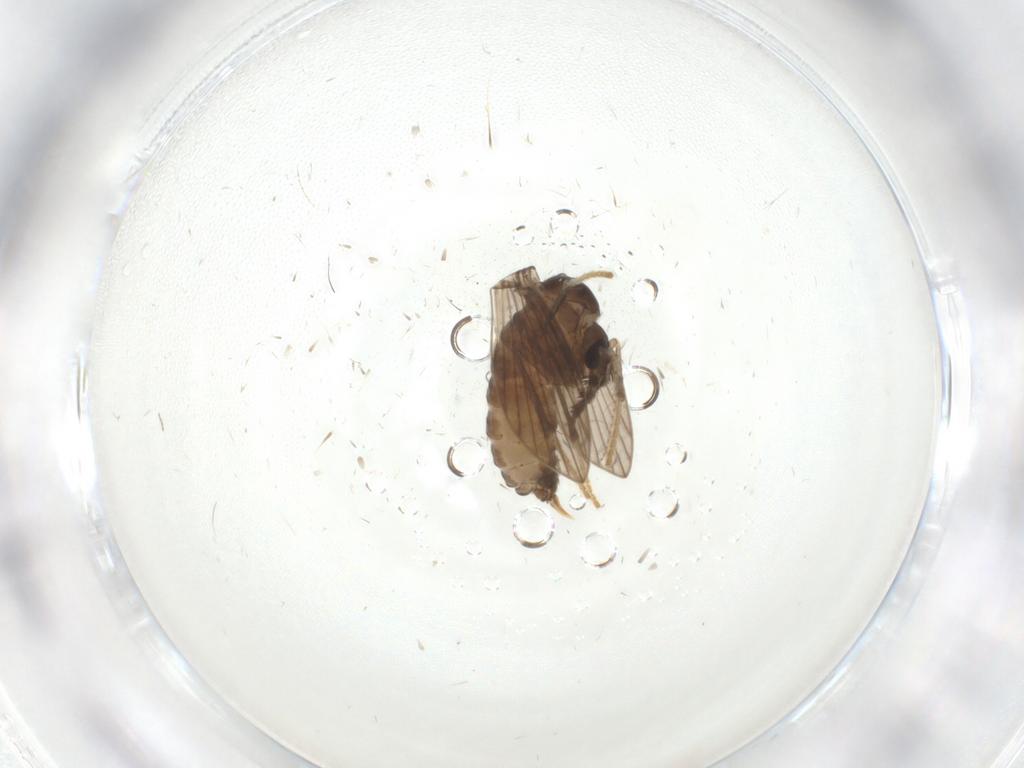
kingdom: Animalia
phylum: Arthropoda
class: Insecta
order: Diptera
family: Psychodidae
